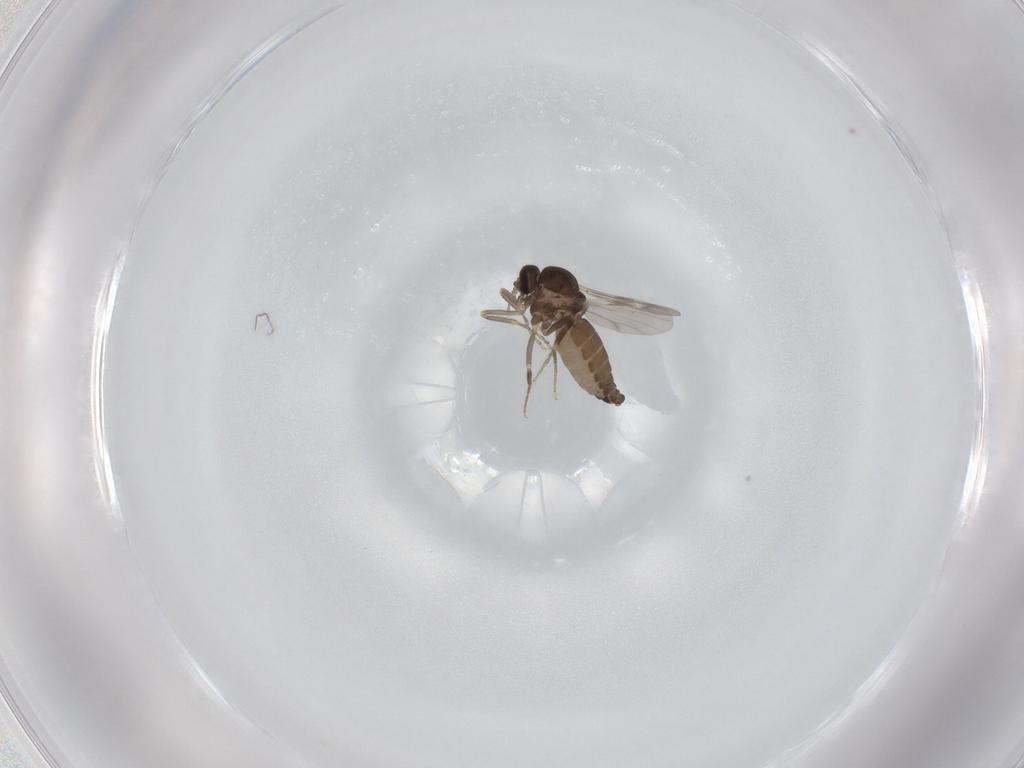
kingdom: Animalia
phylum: Arthropoda
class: Insecta
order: Diptera
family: Ceratopogonidae
